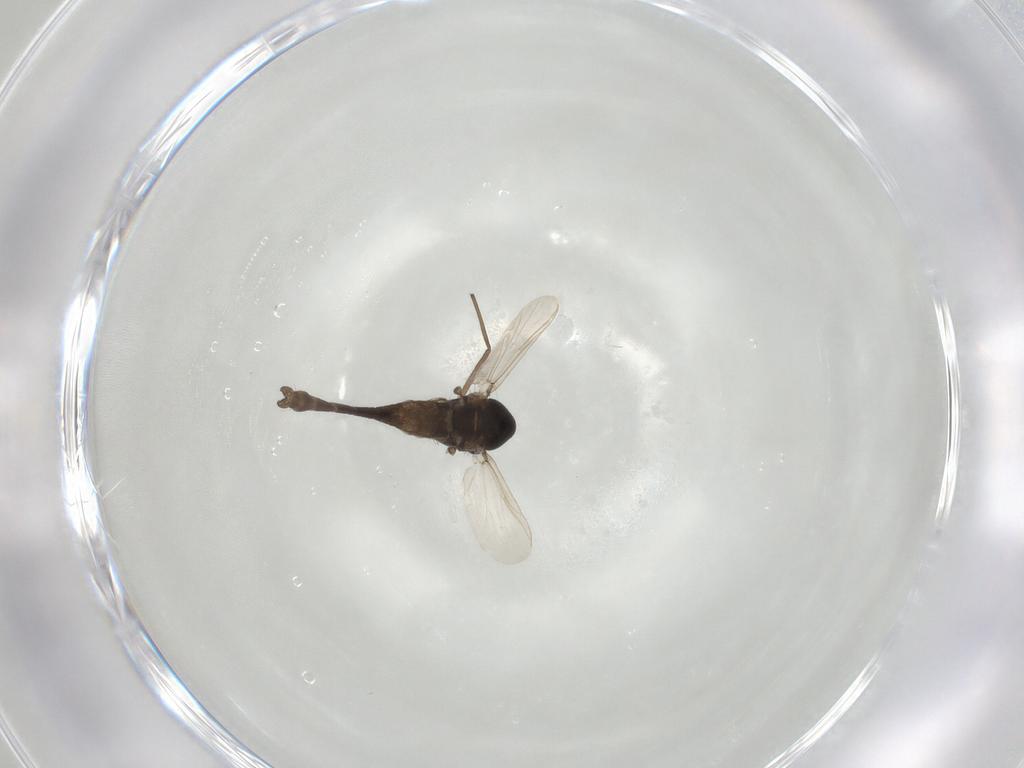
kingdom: Animalia
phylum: Arthropoda
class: Insecta
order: Diptera
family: Chironomidae
